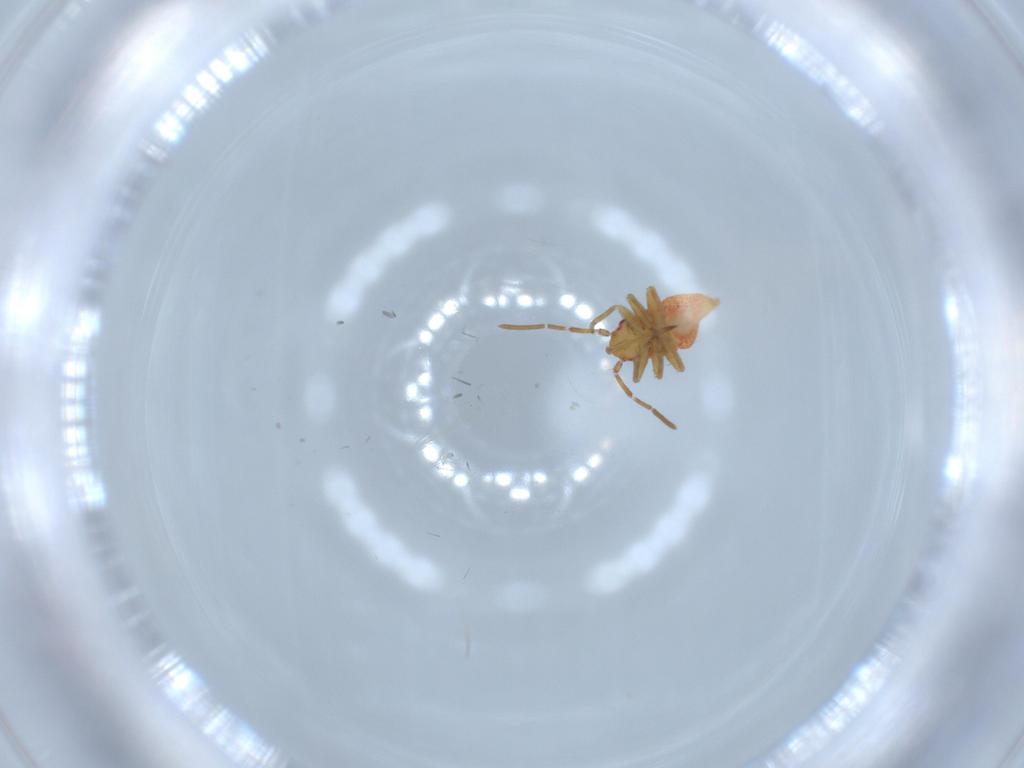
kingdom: Animalia
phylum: Arthropoda
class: Insecta
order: Hemiptera
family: Miridae
